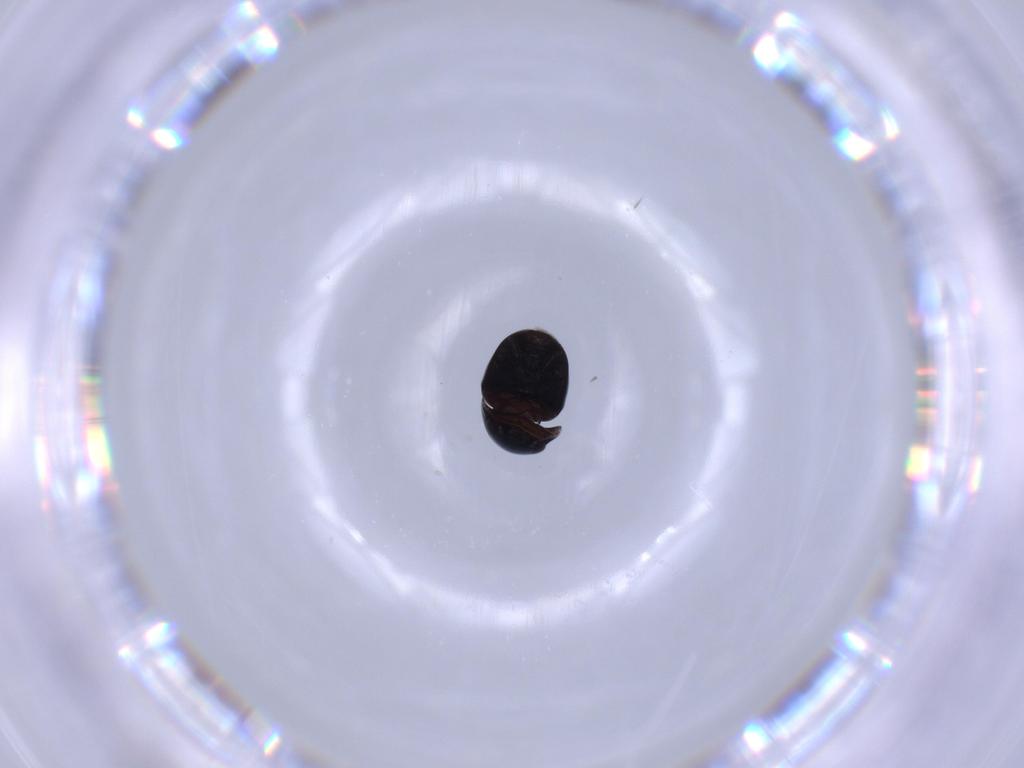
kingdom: Animalia
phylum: Arthropoda
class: Insecta
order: Coleoptera
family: Cybocephalidae
